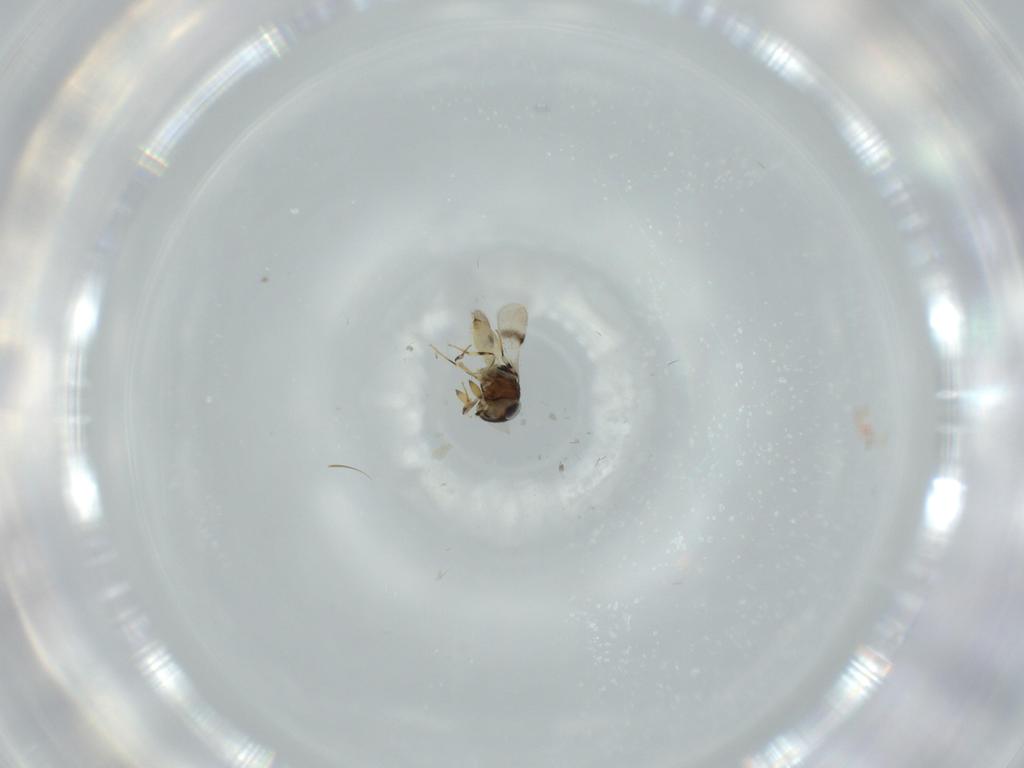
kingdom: Animalia
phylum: Arthropoda
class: Insecta
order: Hymenoptera
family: Scelionidae
